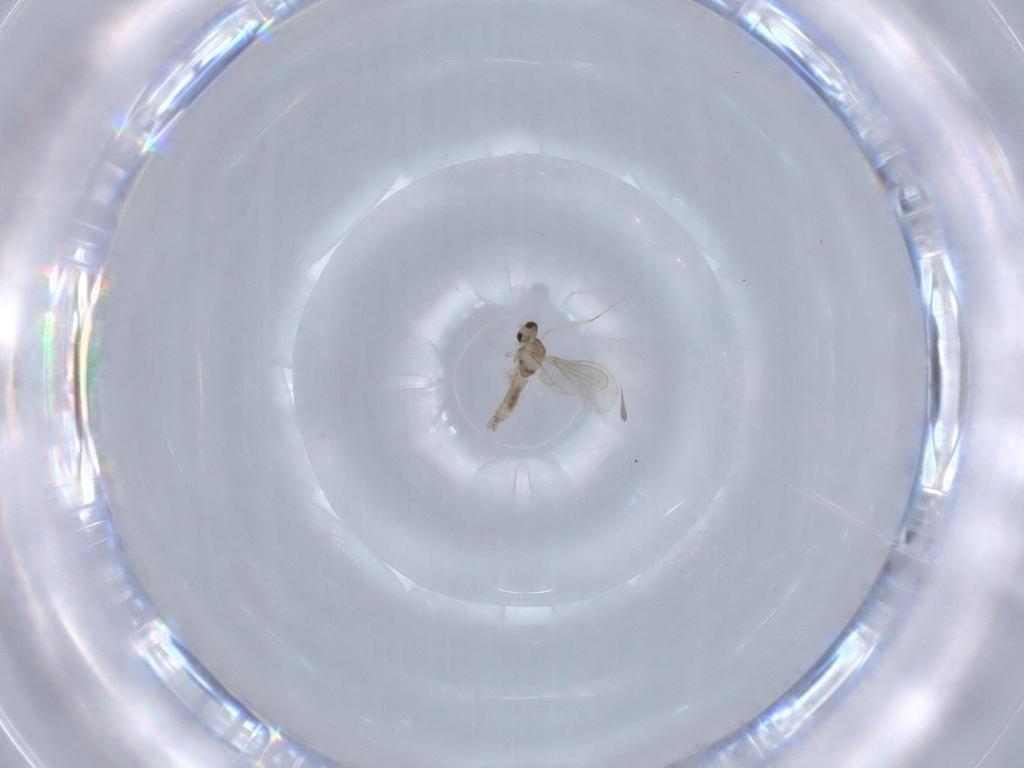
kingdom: Animalia
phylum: Arthropoda
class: Insecta
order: Diptera
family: Cecidomyiidae
